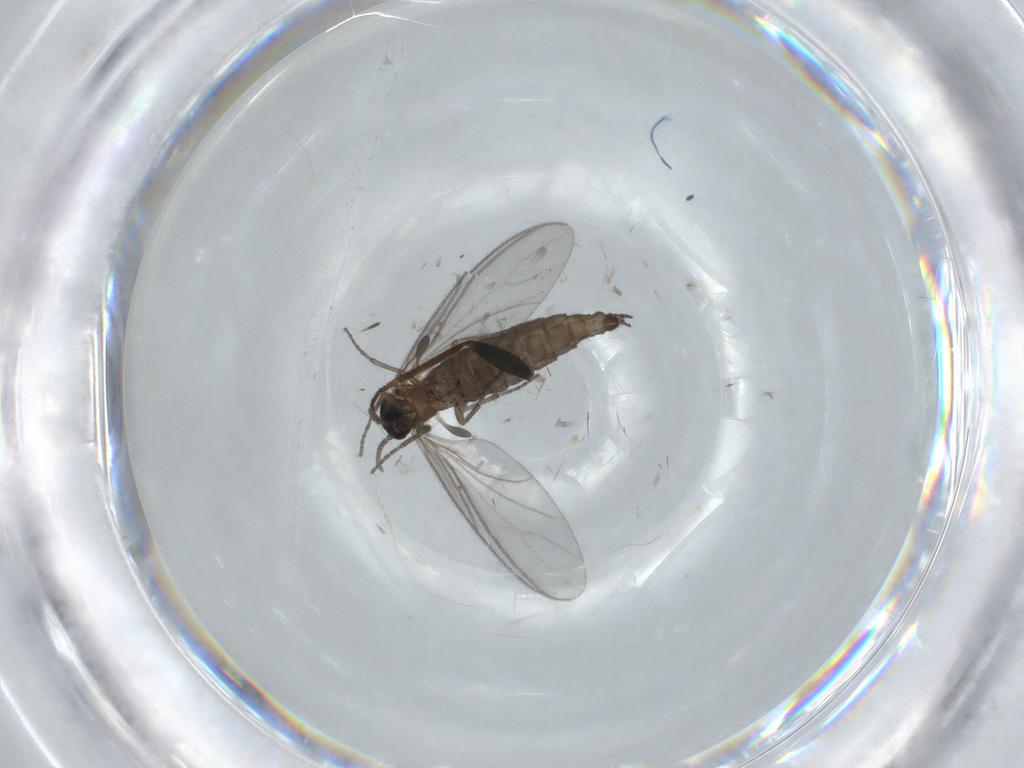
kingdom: Animalia
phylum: Arthropoda
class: Insecta
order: Diptera
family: Sciaridae
